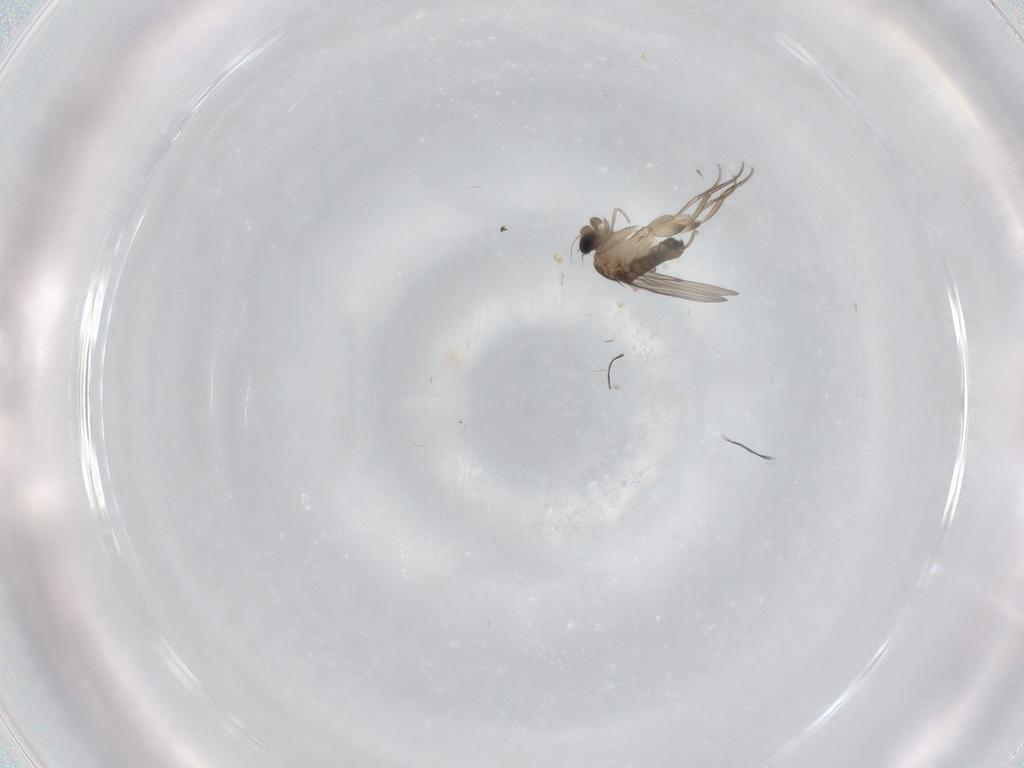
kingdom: Animalia
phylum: Arthropoda
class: Insecta
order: Diptera
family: Phoridae
